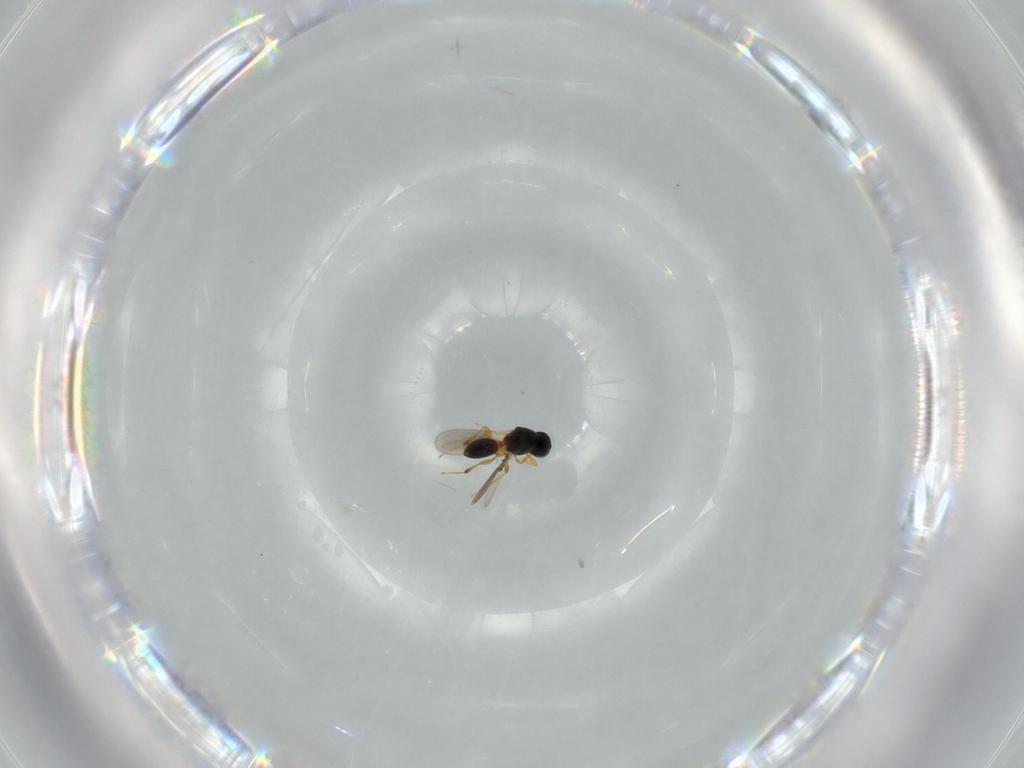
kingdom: Animalia
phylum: Arthropoda
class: Insecta
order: Hymenoptera
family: Platygastridae
